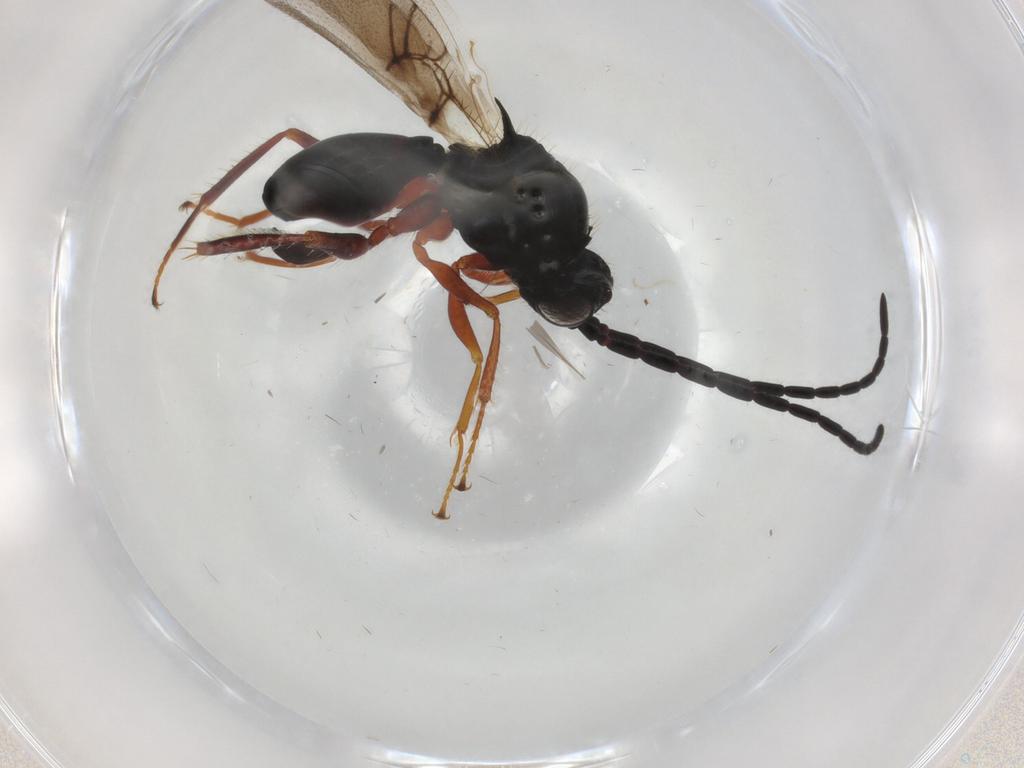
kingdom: Animalia
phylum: Arthropoda
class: Insecta
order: Hymenoptera
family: Figitidae
